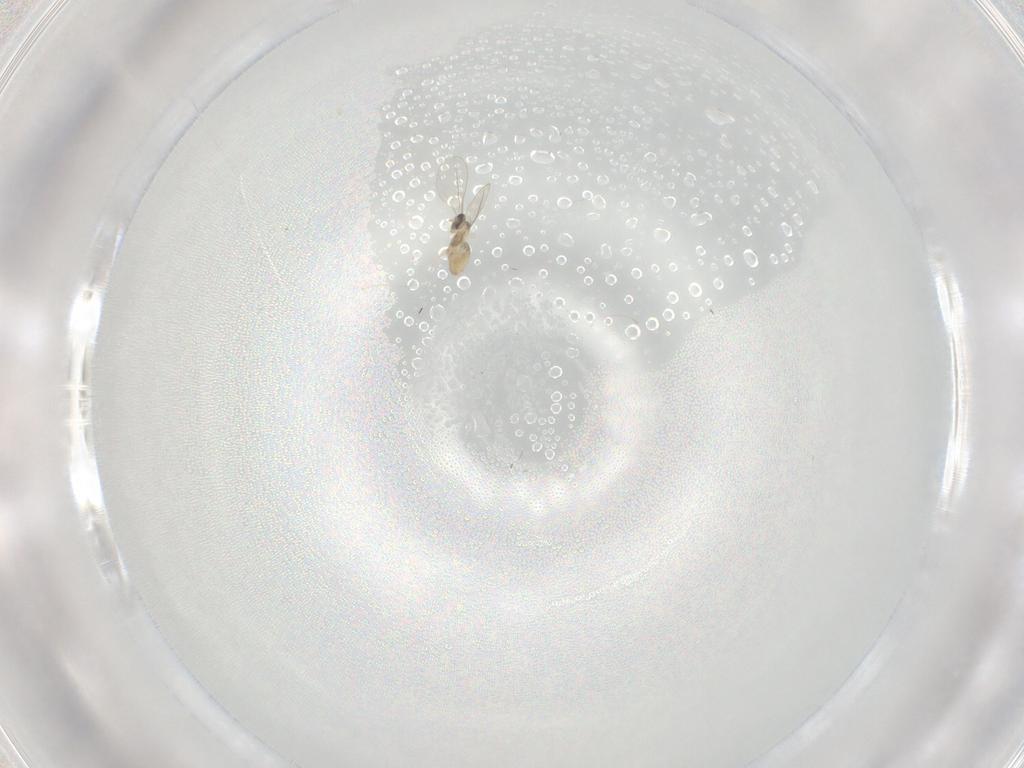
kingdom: Animalia
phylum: Arthropoda
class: Insecta
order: Diptera
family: Sciaridae
